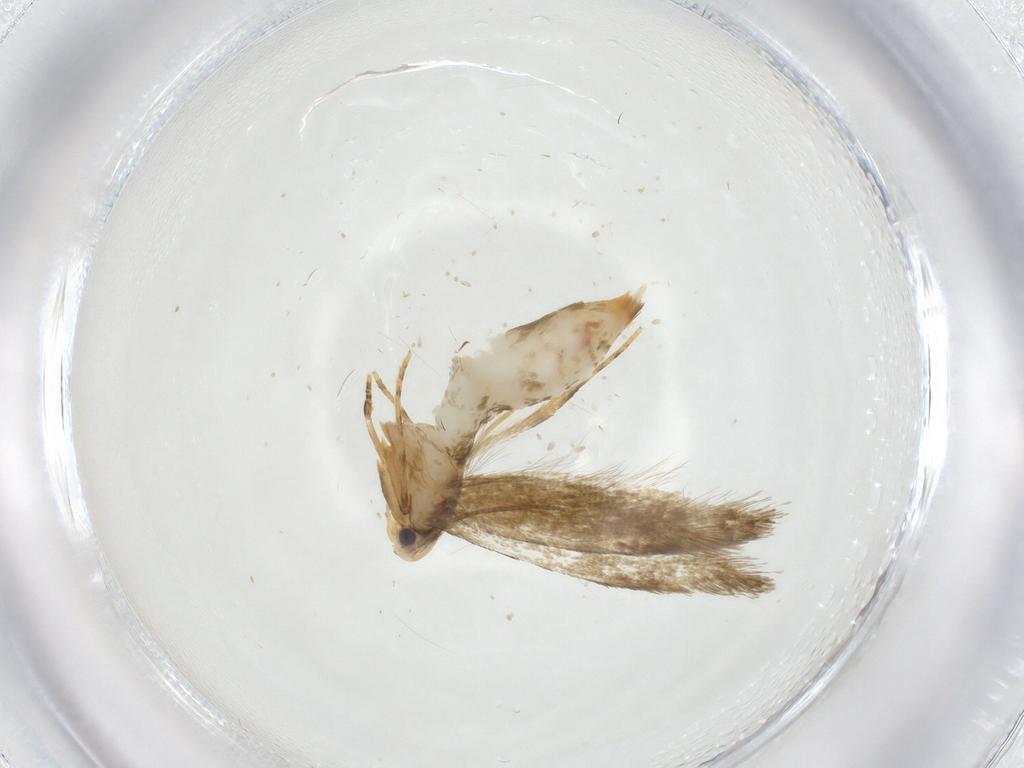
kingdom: Animalia
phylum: Arthropoda
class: Insecta
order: Lepidoptera
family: Tineidae
